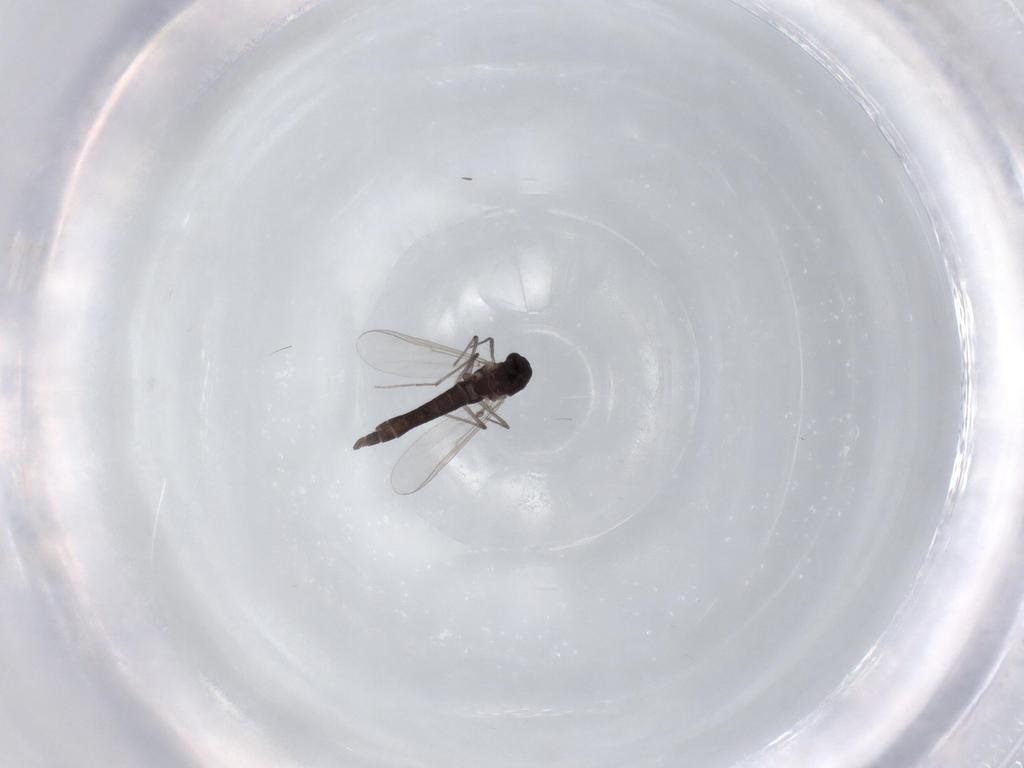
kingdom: Animalia
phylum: Arthropoda
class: Insecta
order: Diptera
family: Chironomidae
